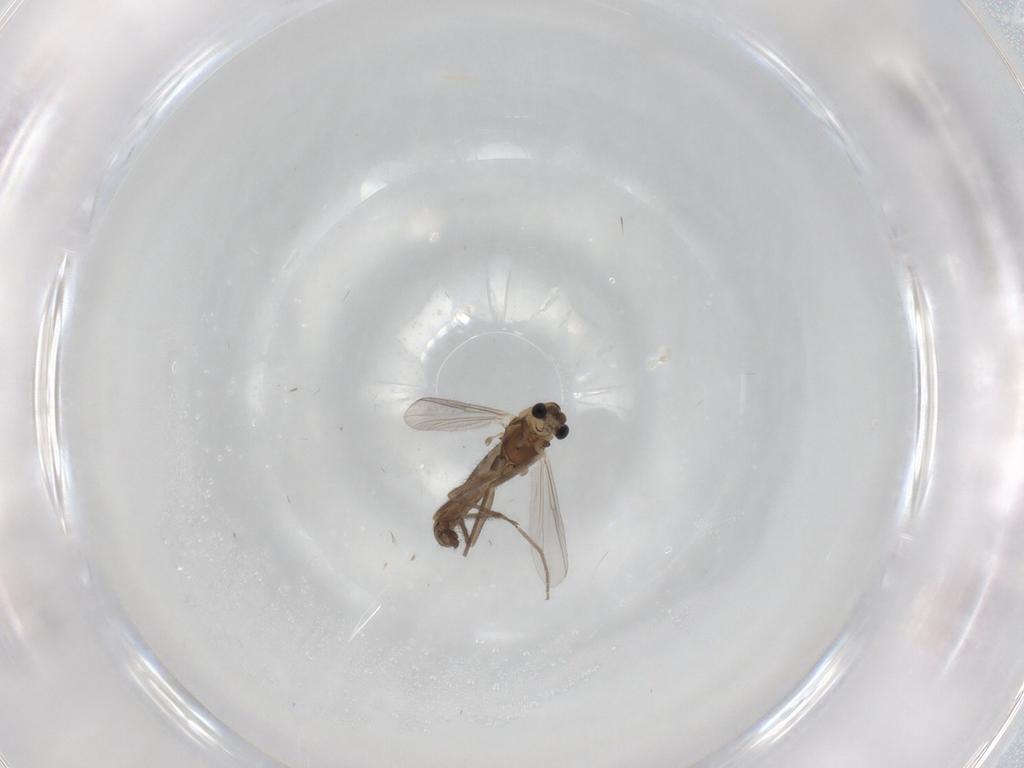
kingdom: Animalia
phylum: Arthropoda
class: Insecta
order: Diptera
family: Chironomidae
